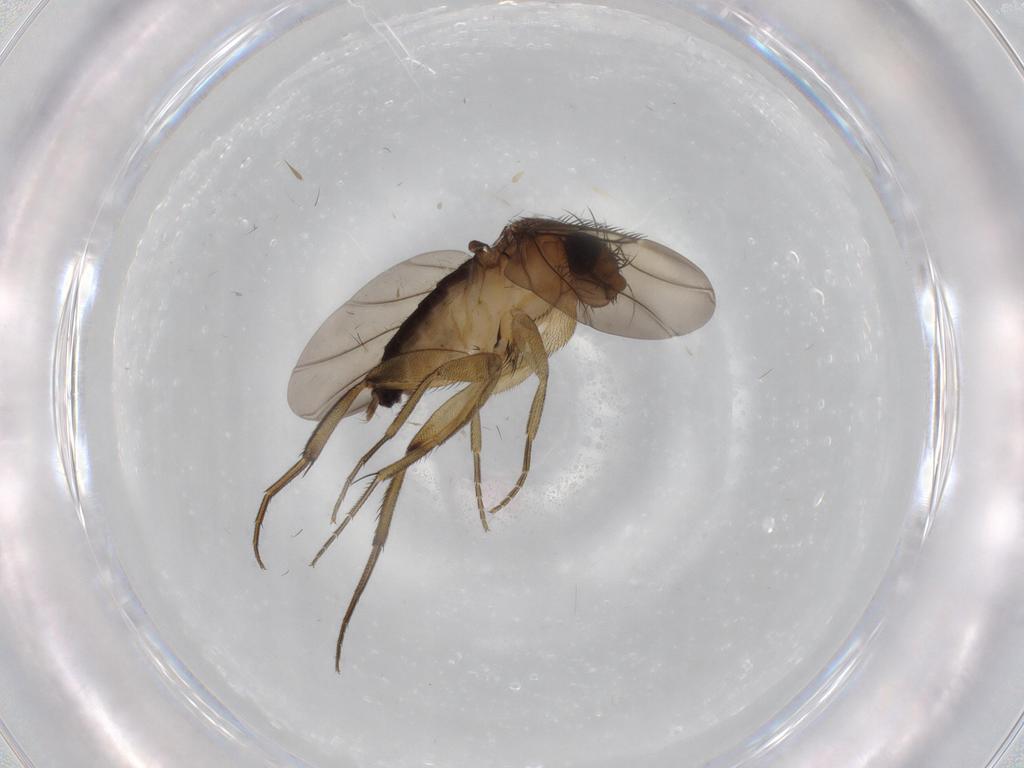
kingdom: Animalia
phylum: Arthropoda
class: Insecta
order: Diptera
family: Phoridae
